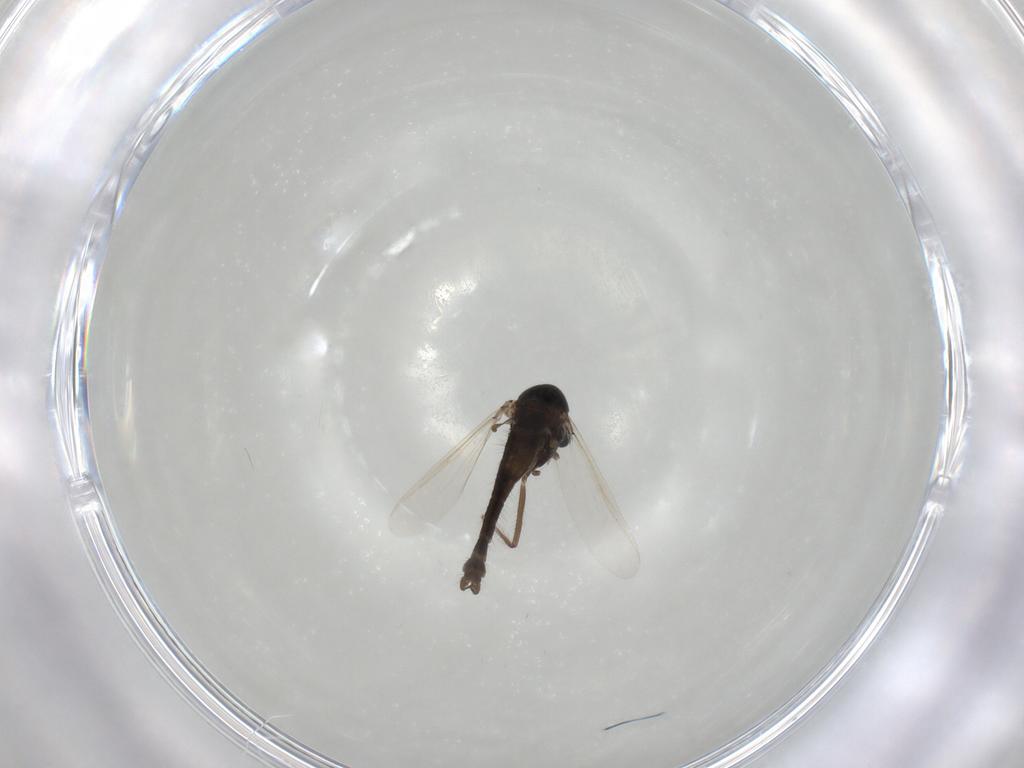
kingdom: Animalia
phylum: Arthropoda
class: Insecta
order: Diptera
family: Chironomidae
